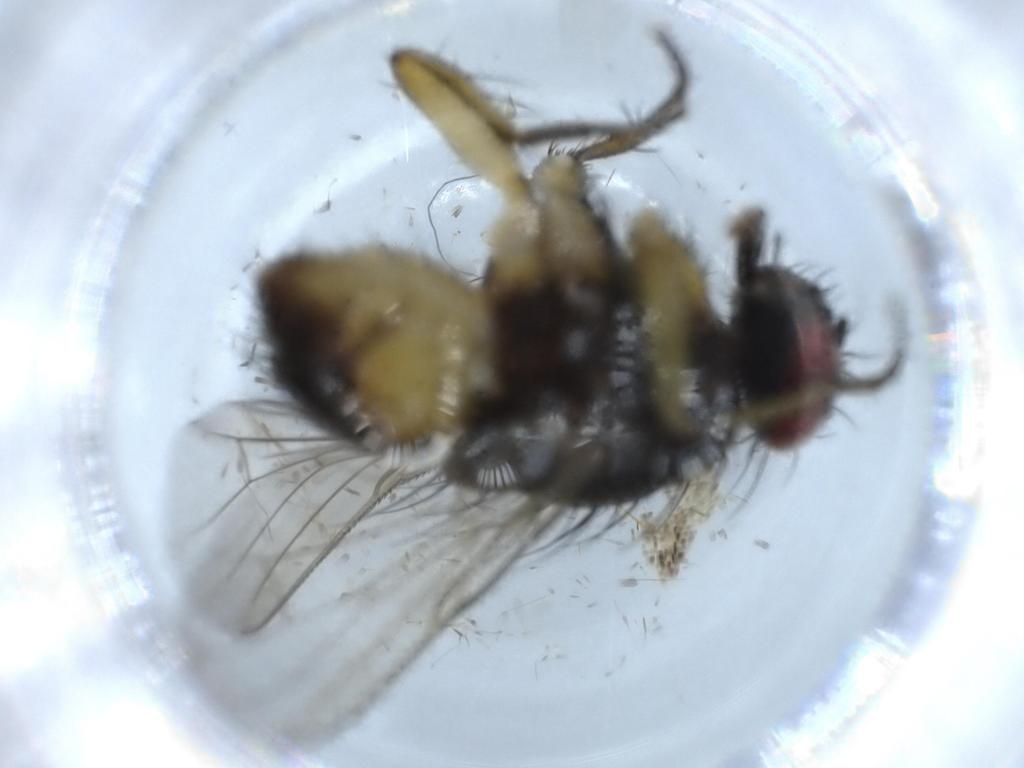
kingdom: Animalia
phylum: Arthropoda
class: Insecta
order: Diptera
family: Muscidae
